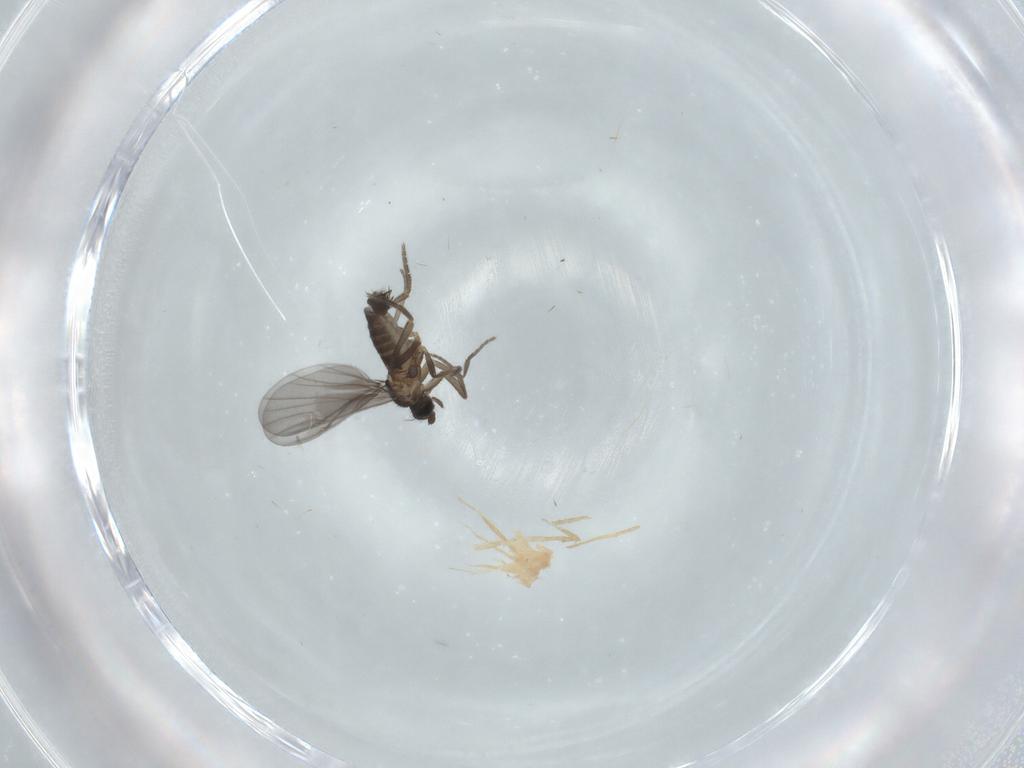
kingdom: Animalia
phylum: Arthropoda
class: Insecta
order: Diptera
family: Phoridae
